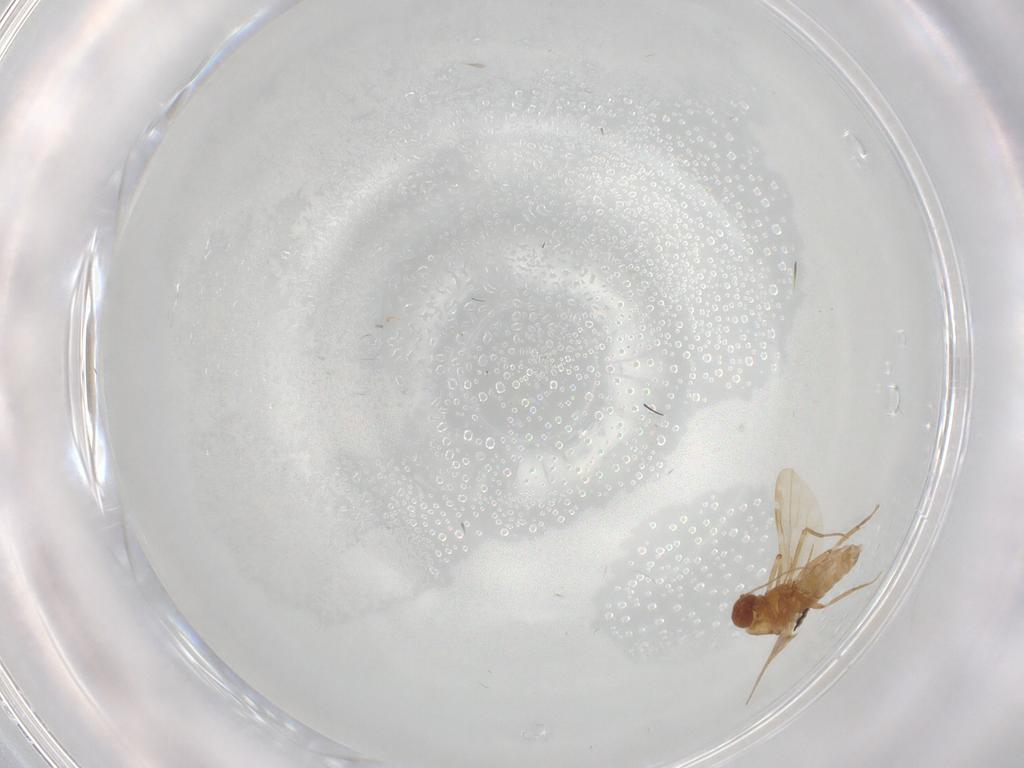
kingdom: Animalia
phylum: Arthropoda
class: Insecta
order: Diptera
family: Ceratopogonidae
